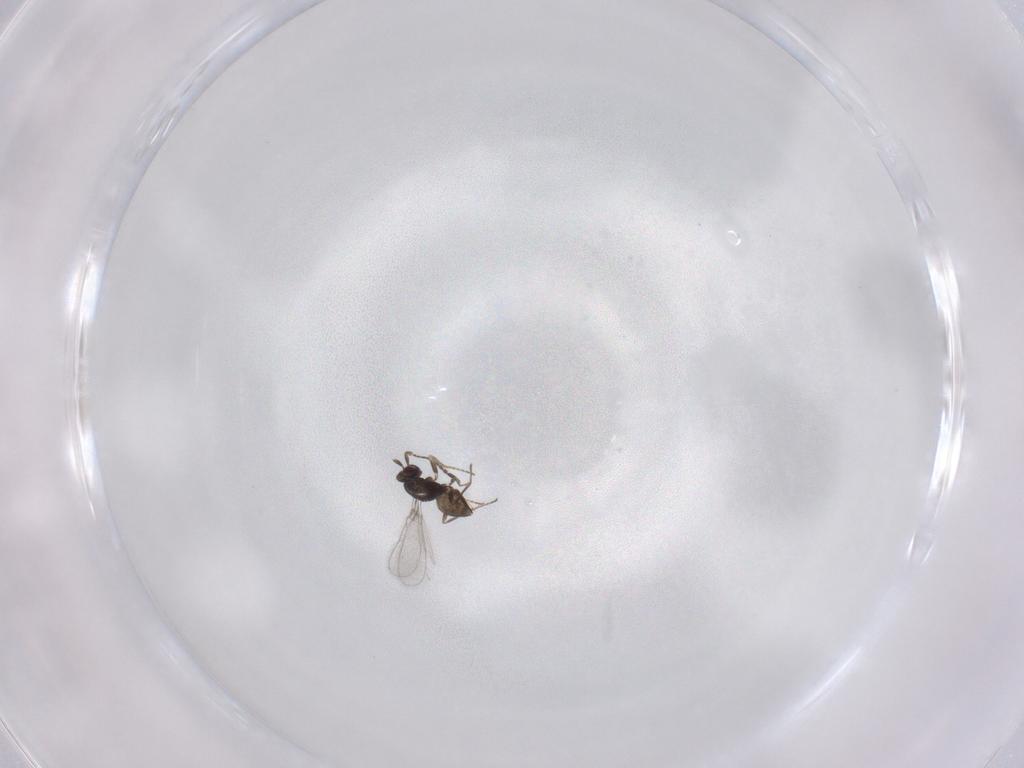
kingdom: Animalia
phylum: Arthropoda
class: Insecta
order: Hymenoptera
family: Mymaridae
